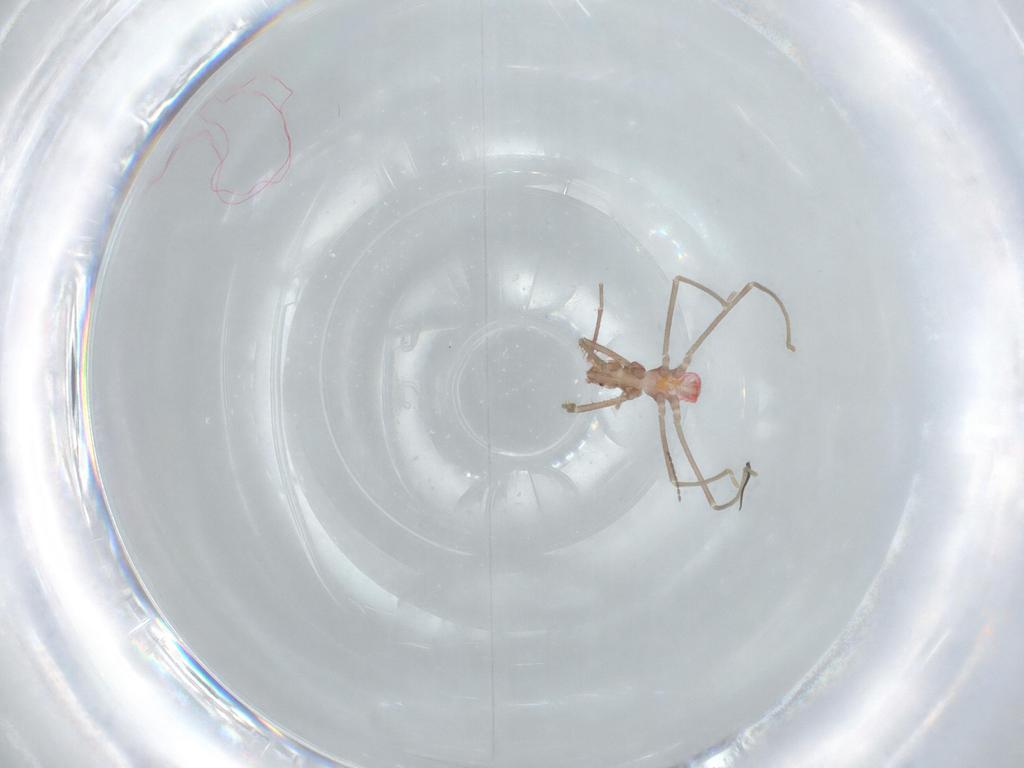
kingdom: Animalia
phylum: Arthropoda
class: Insecta
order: Hemiptera
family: Reduviidae
